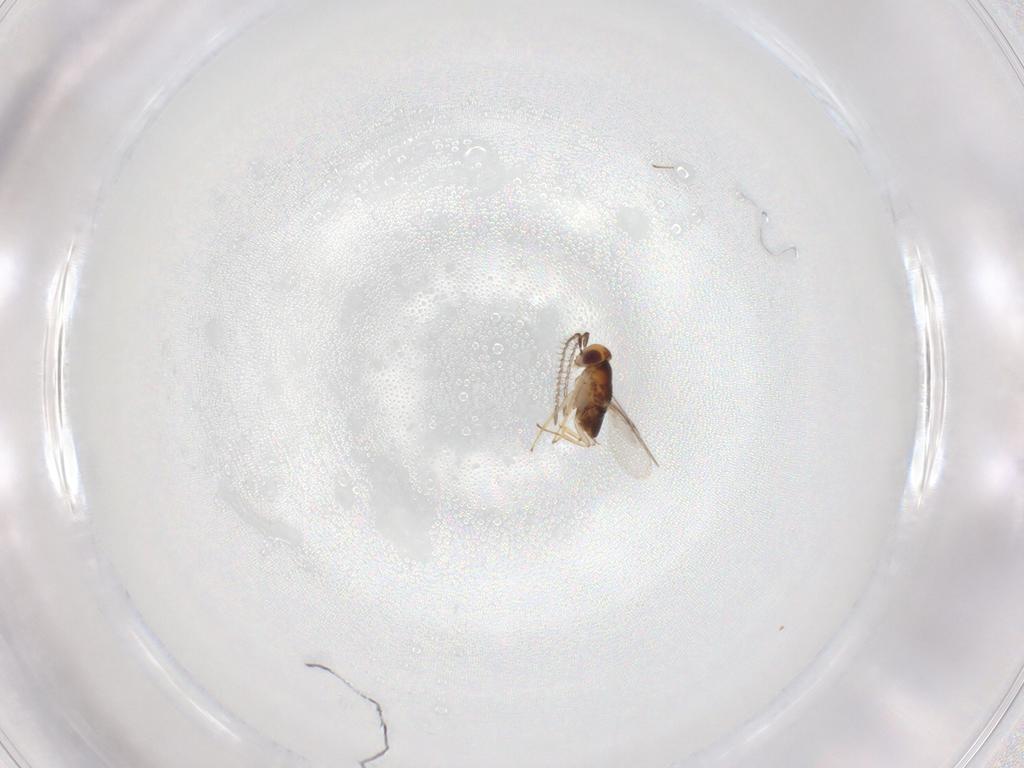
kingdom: Animalia
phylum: Arthropoda
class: Insecta
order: Hymenoptera
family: Encyrtidae
